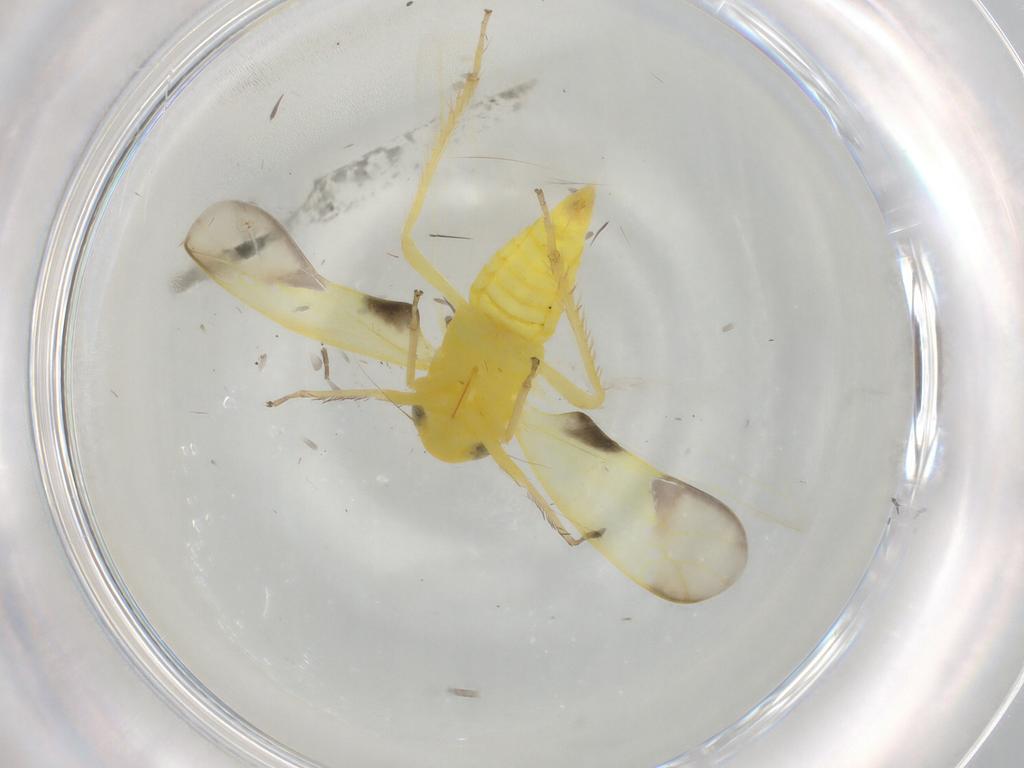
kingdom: Animalia
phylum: Arthropoda
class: Insecta
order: Hemiptera
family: Cicadellidae
